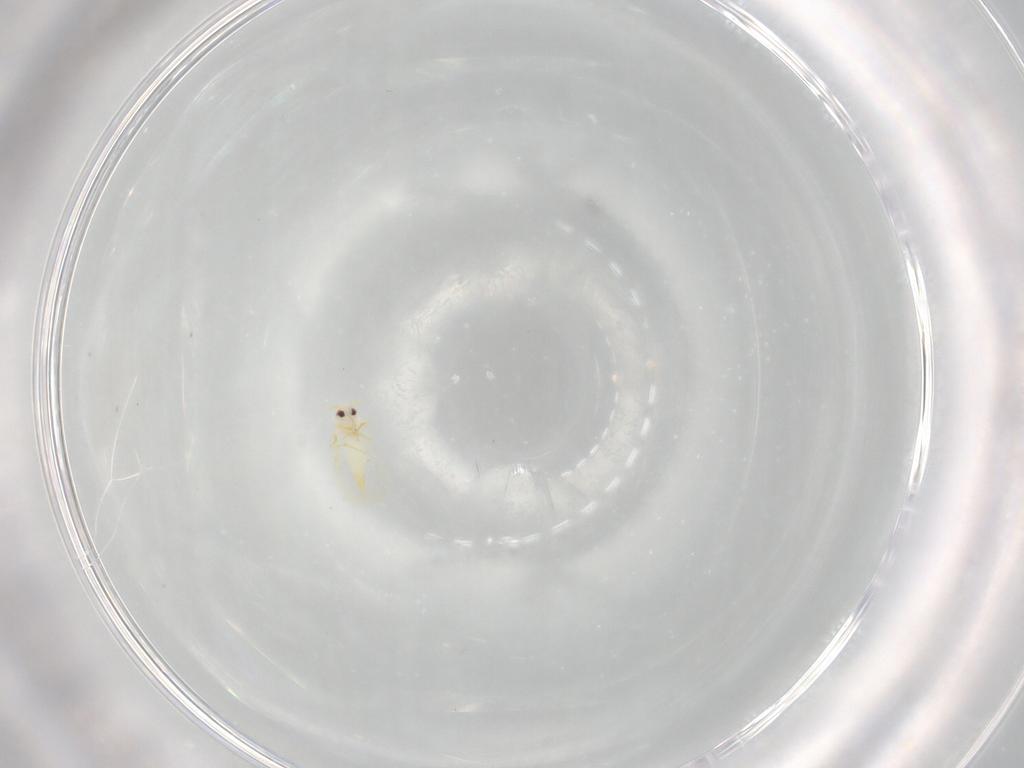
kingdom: Animalia
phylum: Arthropoda
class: Insecta
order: Hemiptera
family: Aleyrodidae
